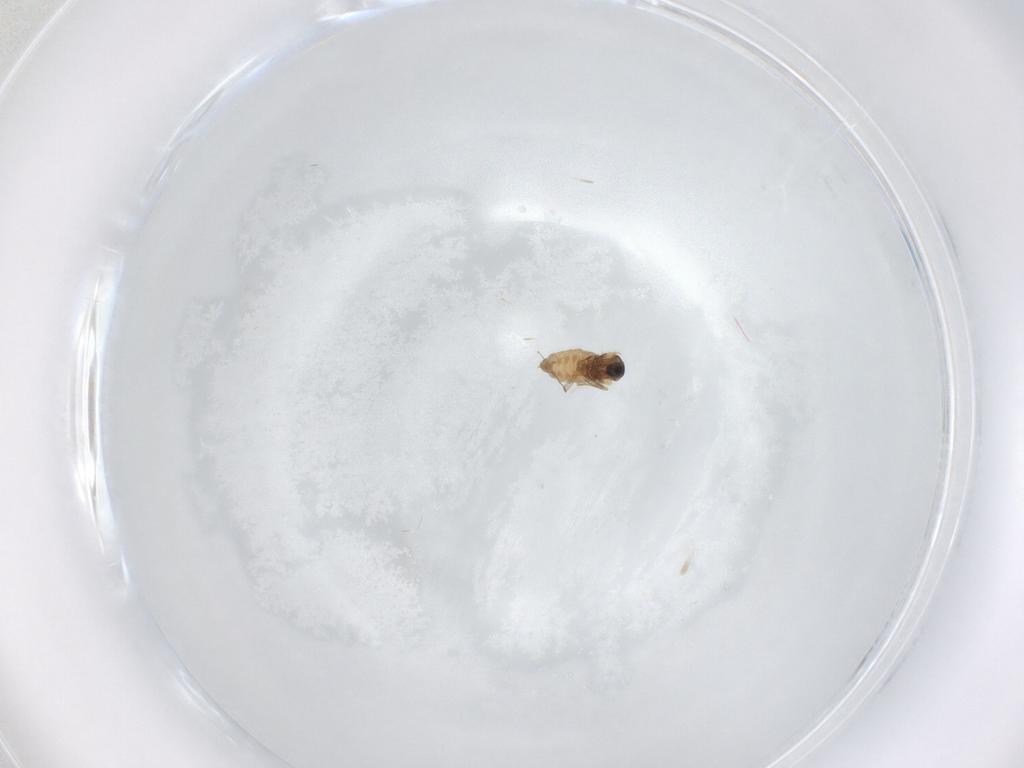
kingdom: Animalia
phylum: Arthropoda
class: Insecta
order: Diptera
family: Ceratopogonidae
